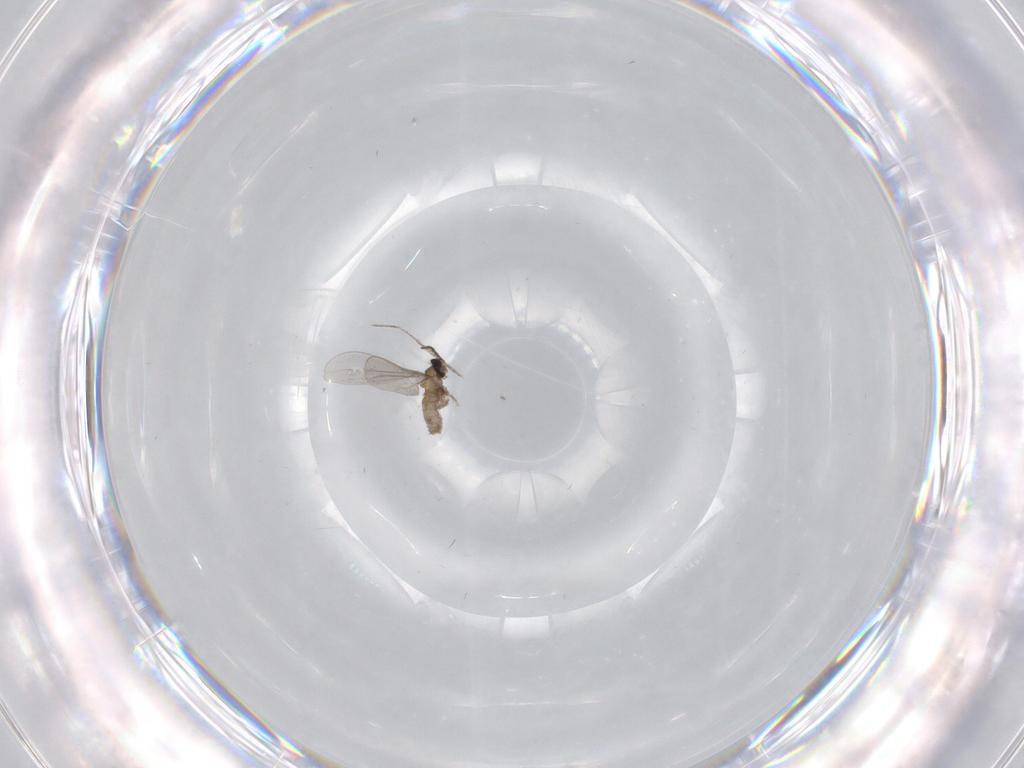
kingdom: Animalia
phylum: Arthropoda
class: Insecta
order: Diptera
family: Cecidomyiidae
